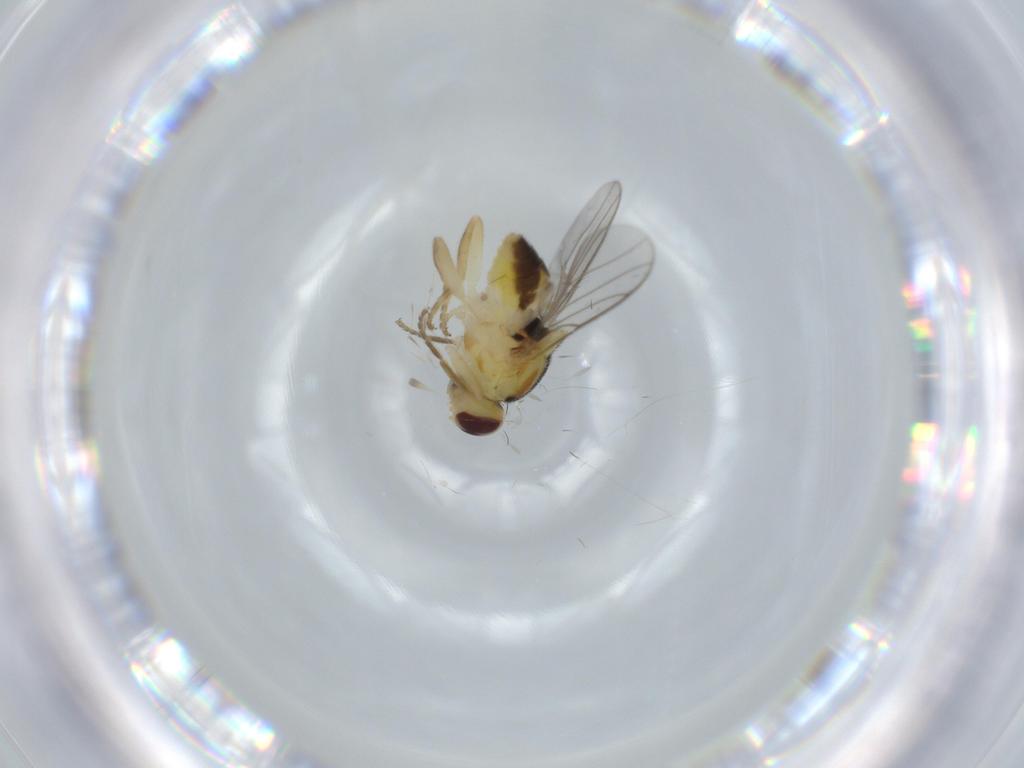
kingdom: Animalia
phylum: Arthropoda
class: Insecta
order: Diptera
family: Chloropidae
